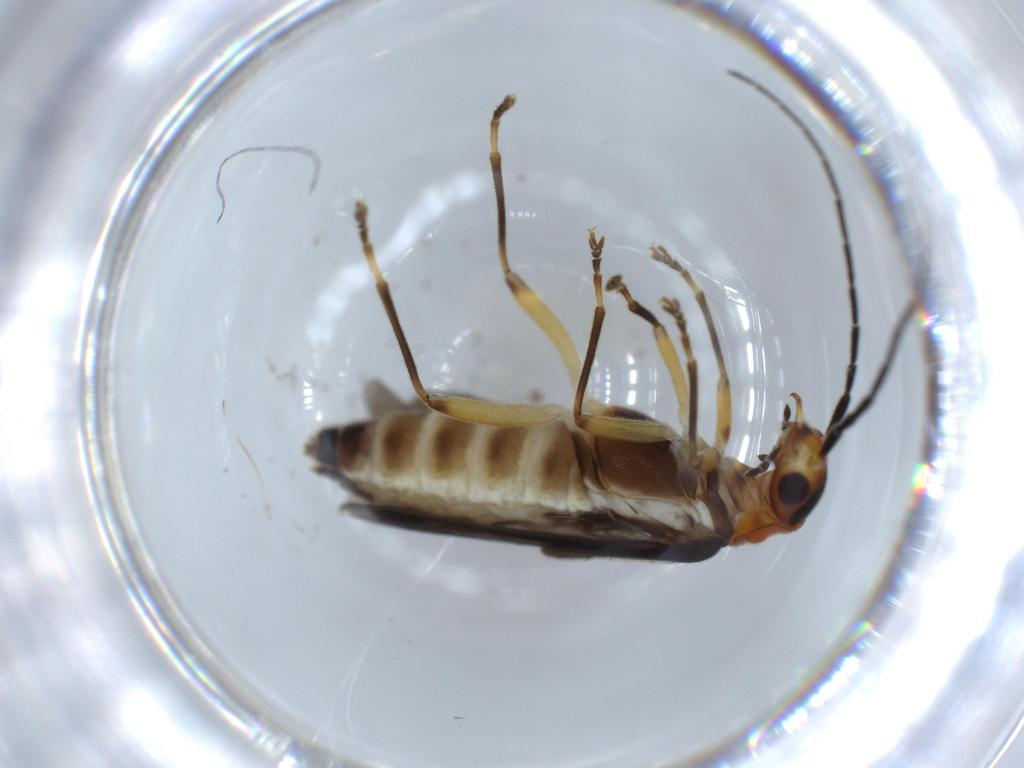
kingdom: Animalia
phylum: Arthropoda
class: Insecta
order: Coleoptera
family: Cantharidae
